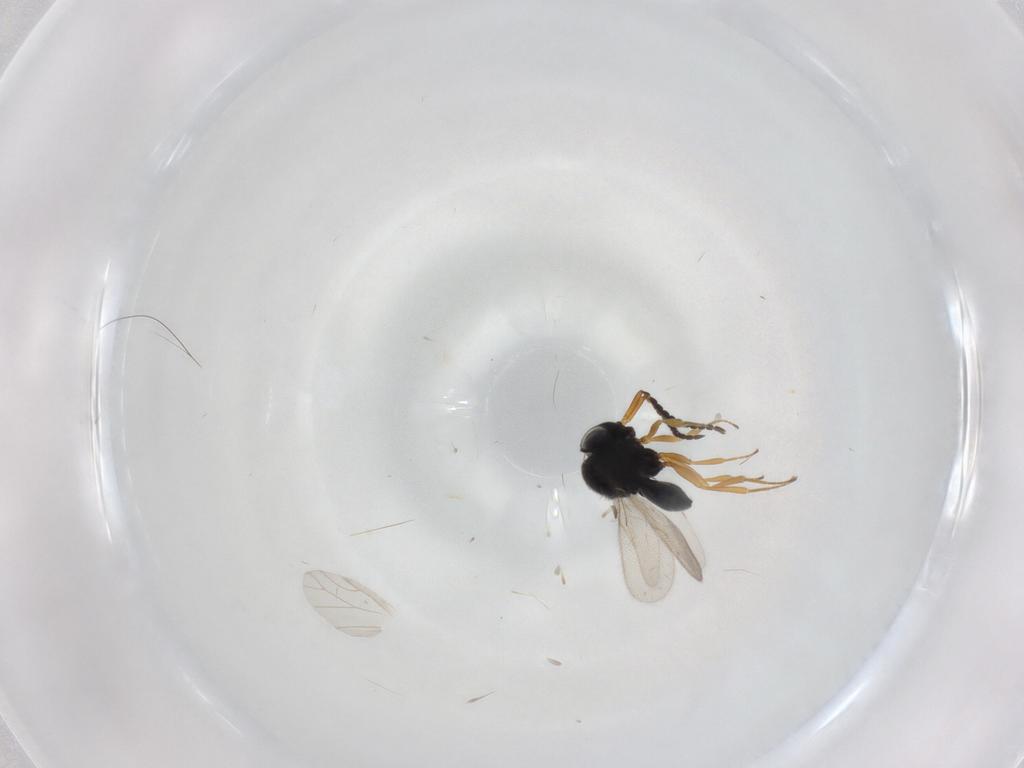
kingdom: Animalia
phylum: Arthropoda
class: Insecta
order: Hymenoptera
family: Scelionidae
